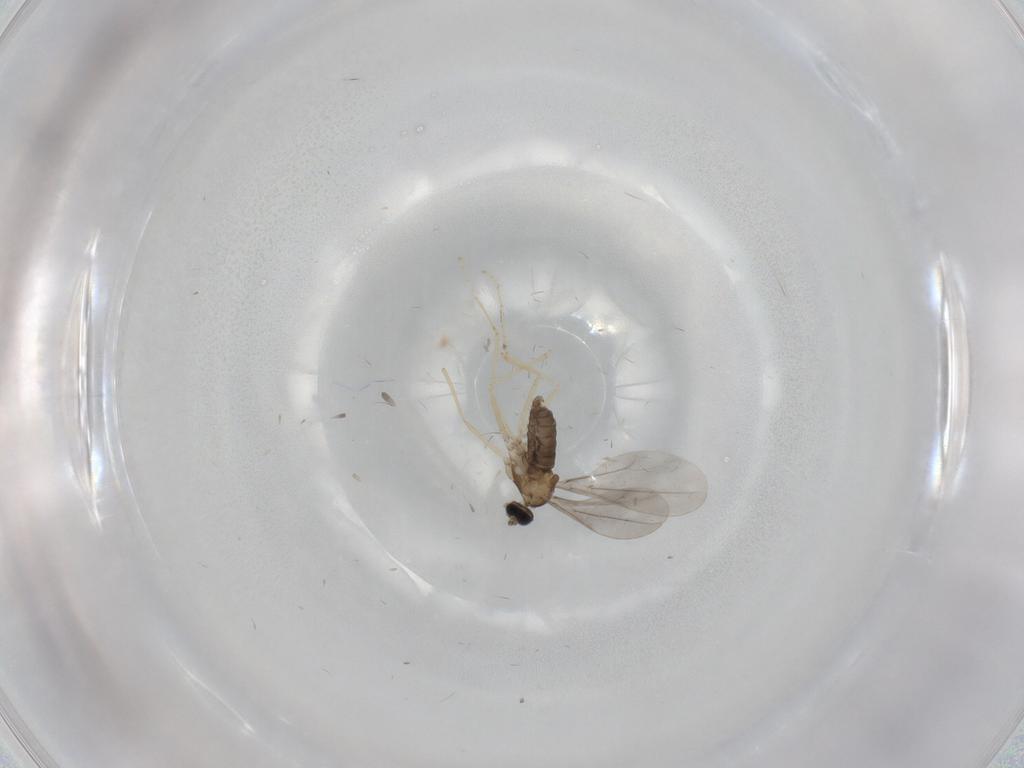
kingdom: Animalia
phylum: Arthropoda
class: Insecta
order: Diptera
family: Cecidomyiidae
